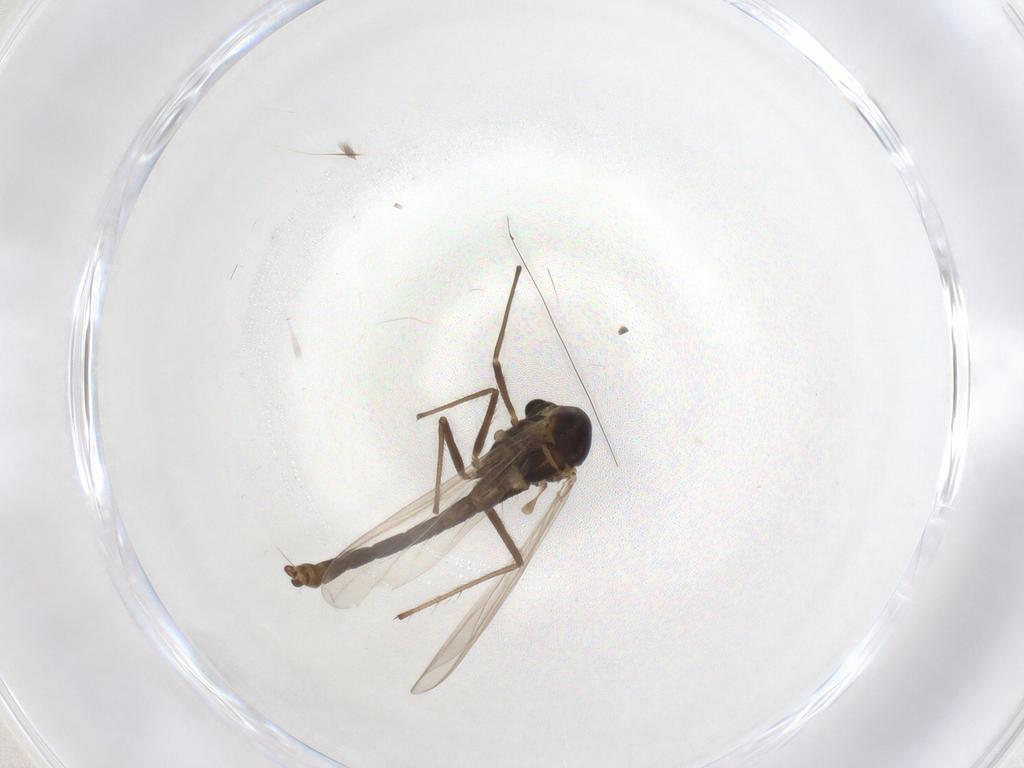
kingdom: Animalia
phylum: Arthropoda
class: Insecta
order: Diptera
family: Chironomidae
